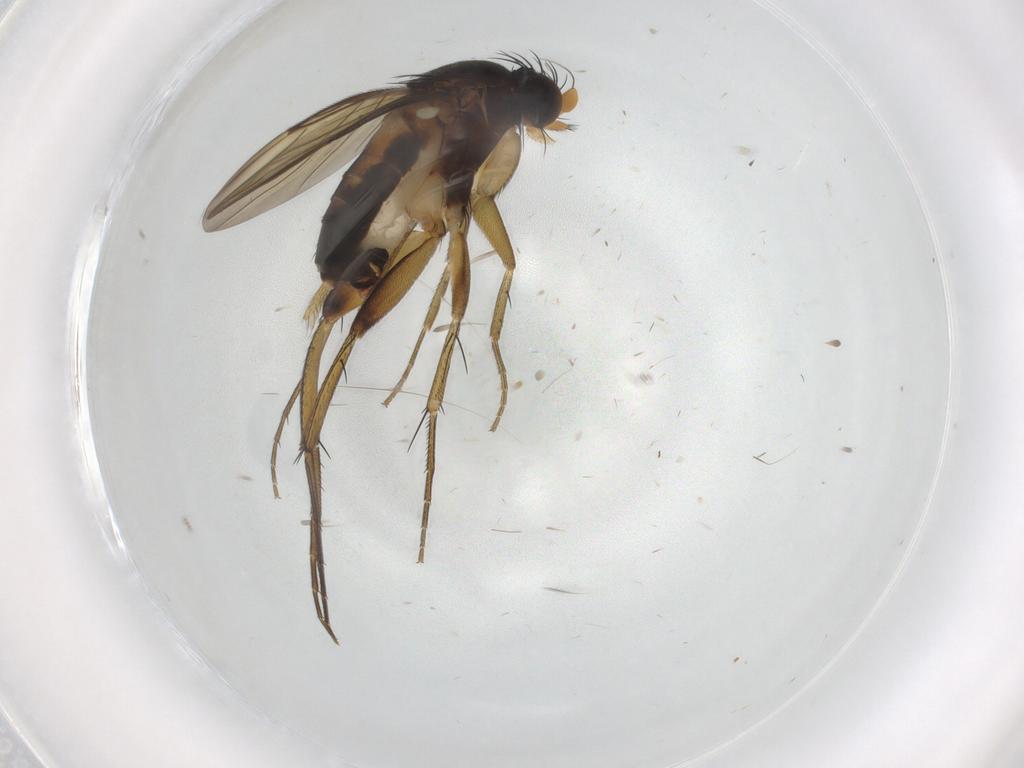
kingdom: Animalia
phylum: Arthropoda
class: Insecta
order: Diptera
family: Phoridae
